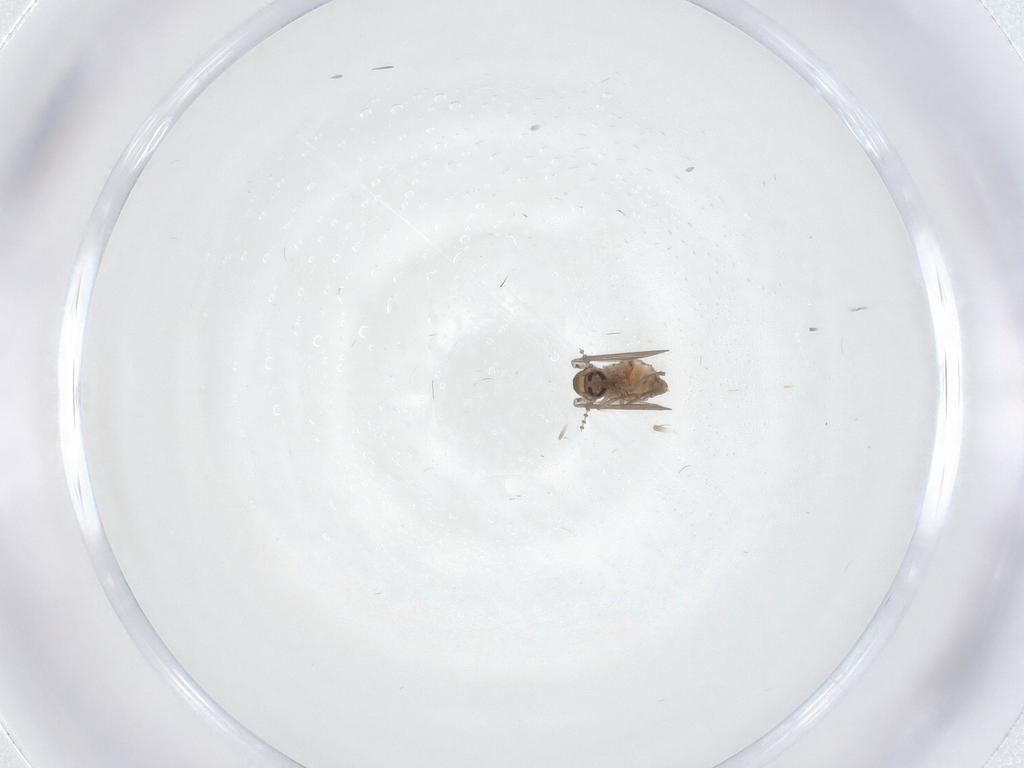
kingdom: Animalia
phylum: Arthropoda
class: Insecta
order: Diptera
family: Psychodidae
